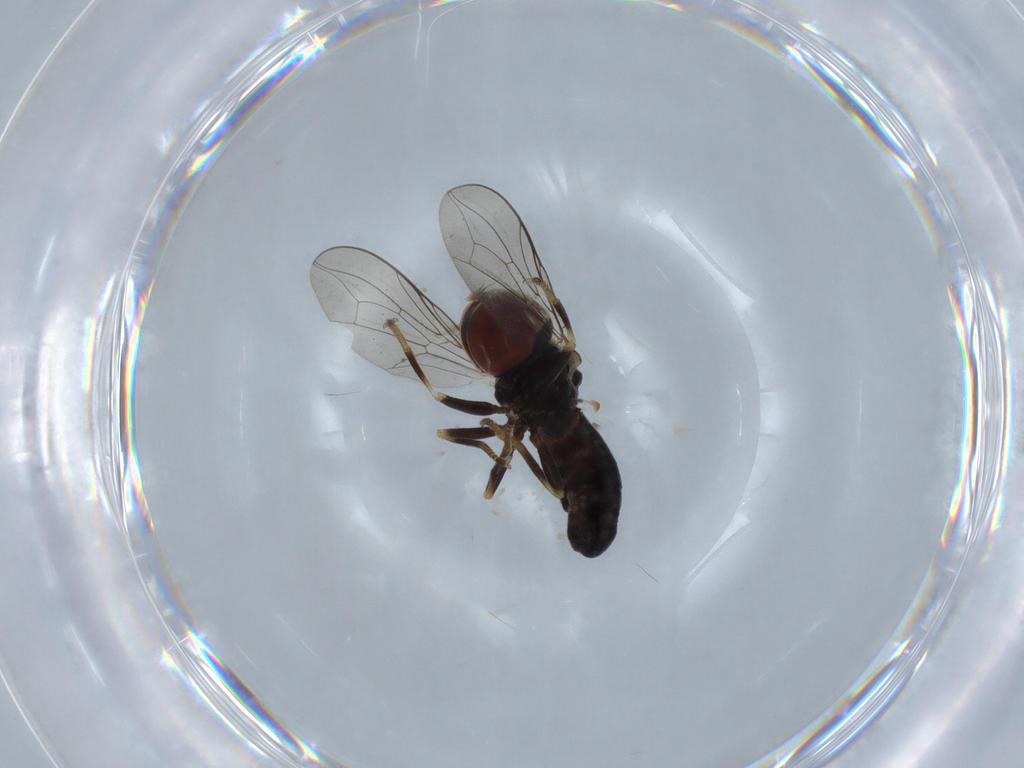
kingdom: Animalia
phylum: Arthropoda
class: Insecta
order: Diptera
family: Pipunculidae
